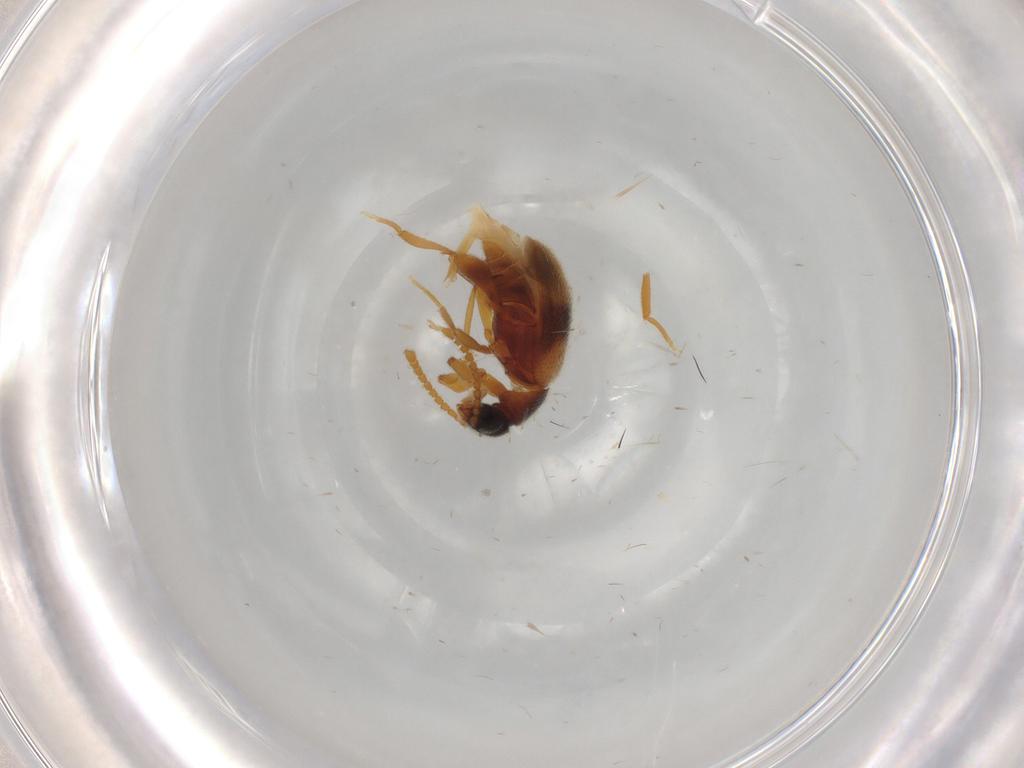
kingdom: Animalia
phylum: Arthropoda
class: Insecta
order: Coleoptera
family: Aderidae
